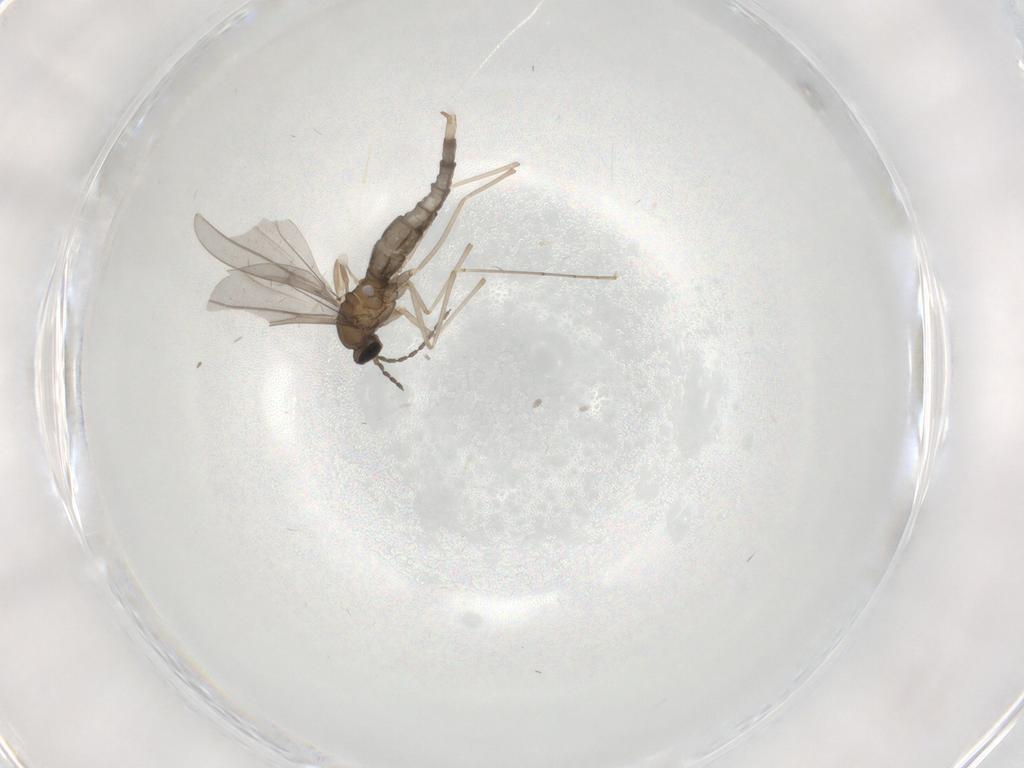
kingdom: Animalia
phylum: Arthropoda
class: Insecta
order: Diptera
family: Cecidomyiidae
